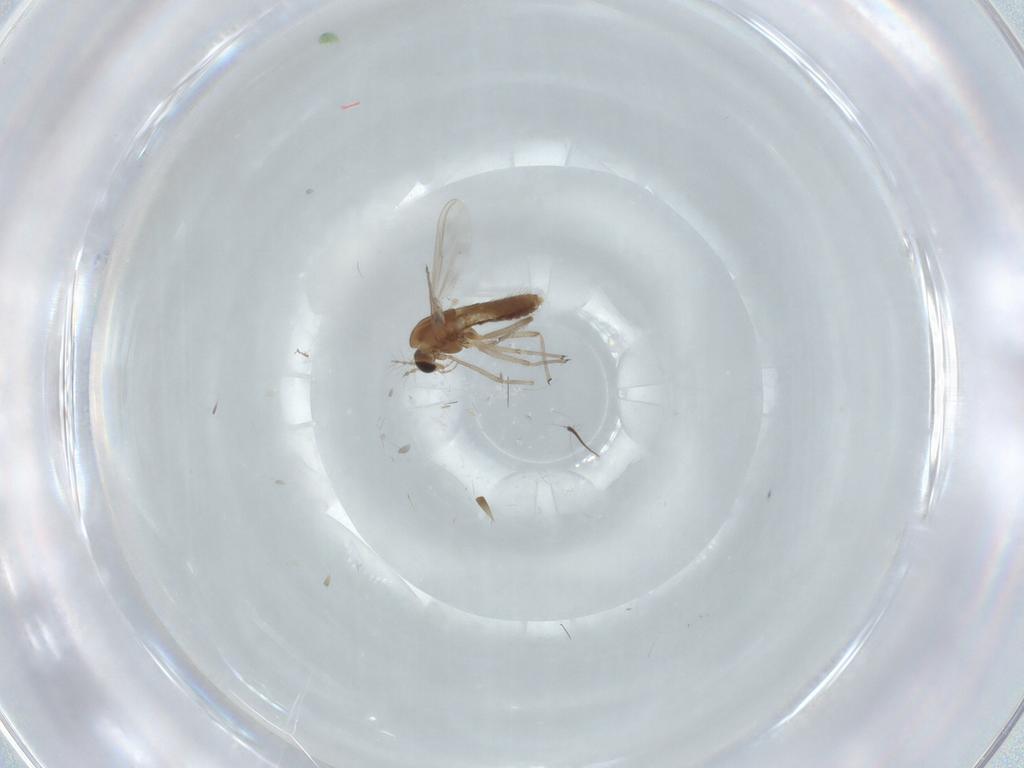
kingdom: Animalia
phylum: Arthropoda
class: Insecta
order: Diptera
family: Chironomidae
